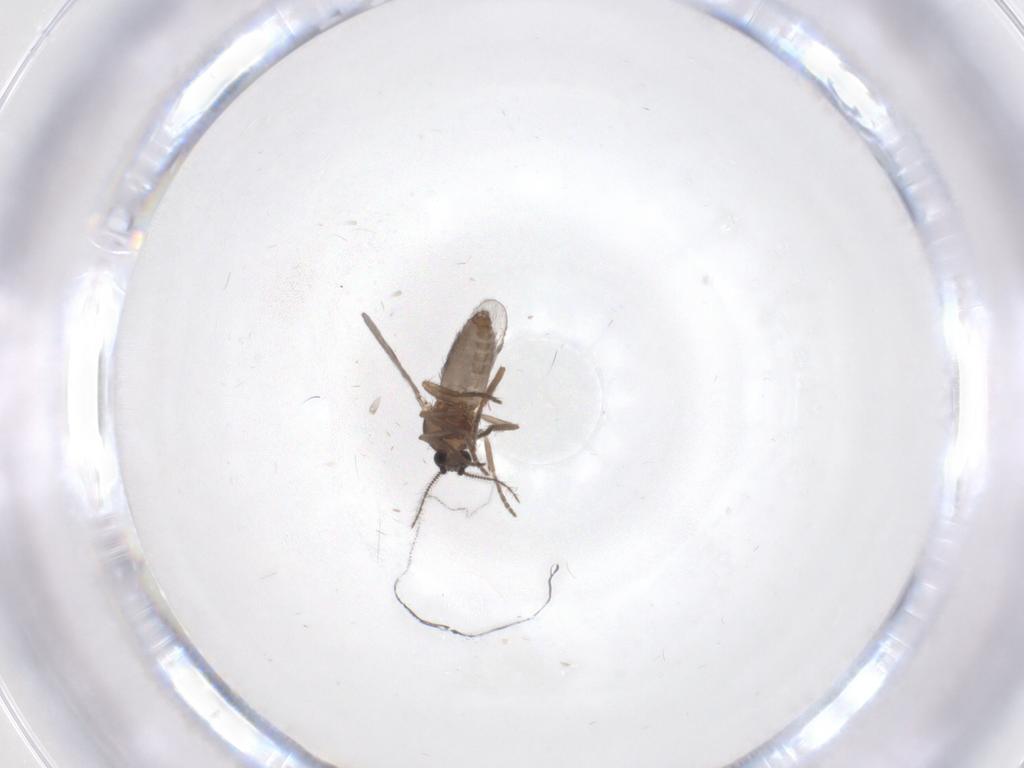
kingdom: Animalia
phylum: Arthropoda
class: Insecta
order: Diptera
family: Dolichopodidae
